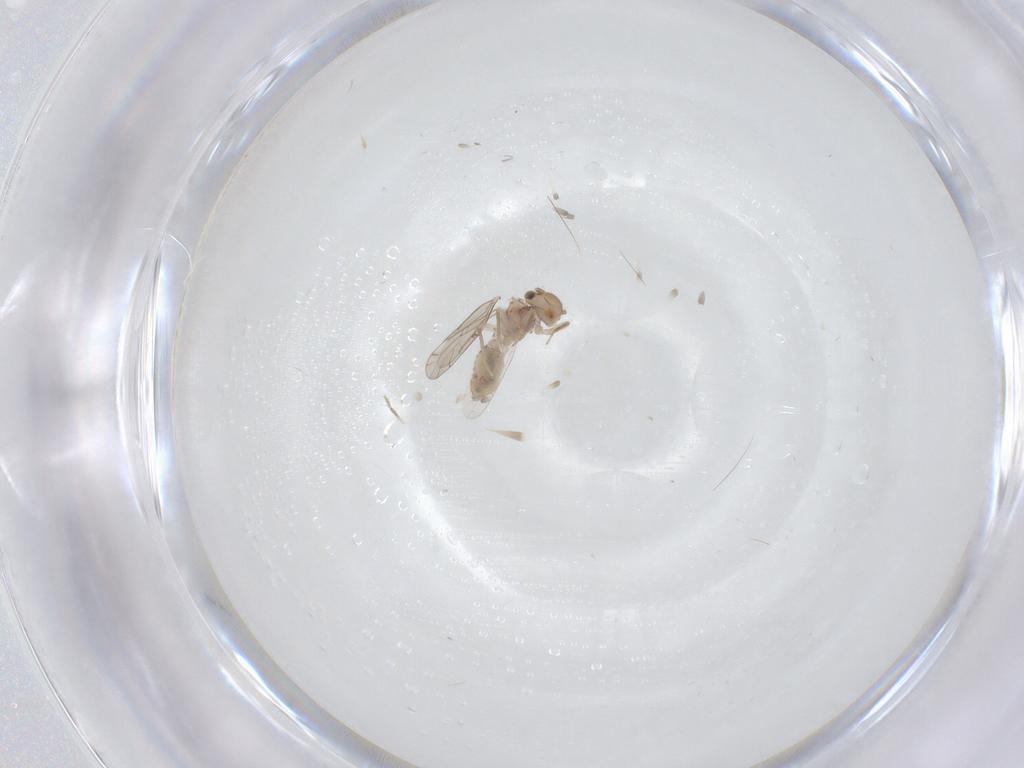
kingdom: Animalia
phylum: Arthropoda
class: Insecta
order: Psocodea
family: Ectopsocidae
